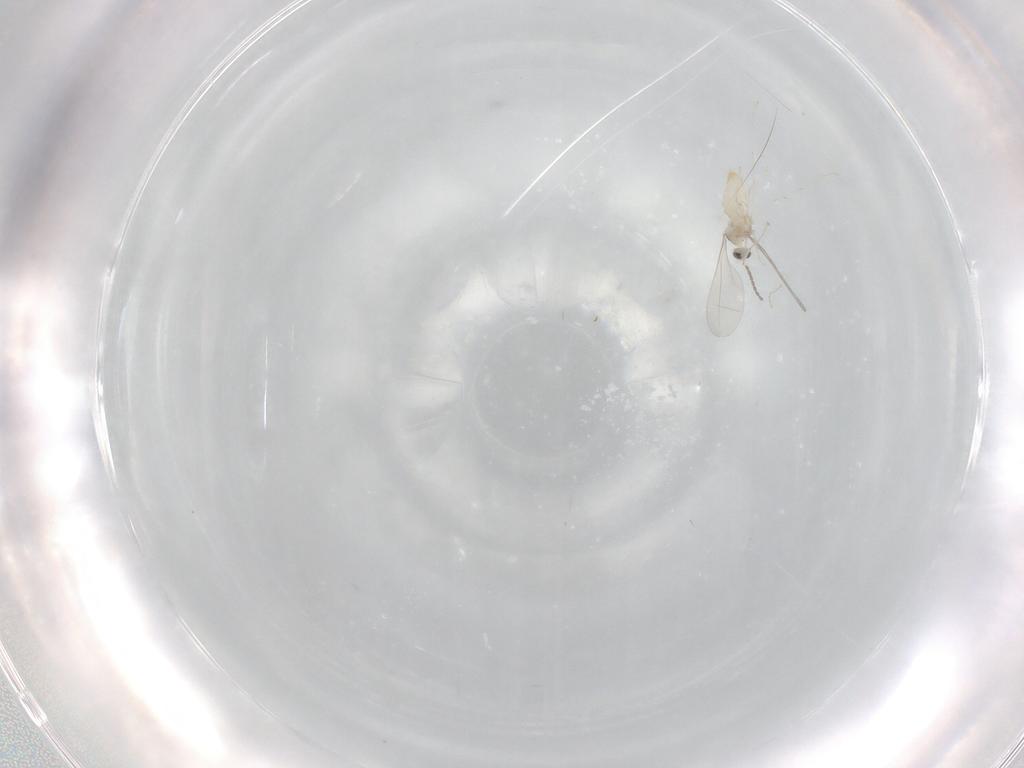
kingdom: Animalia
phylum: Arthropoda
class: Insecta
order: Diptera
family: Cecidomyiidae
